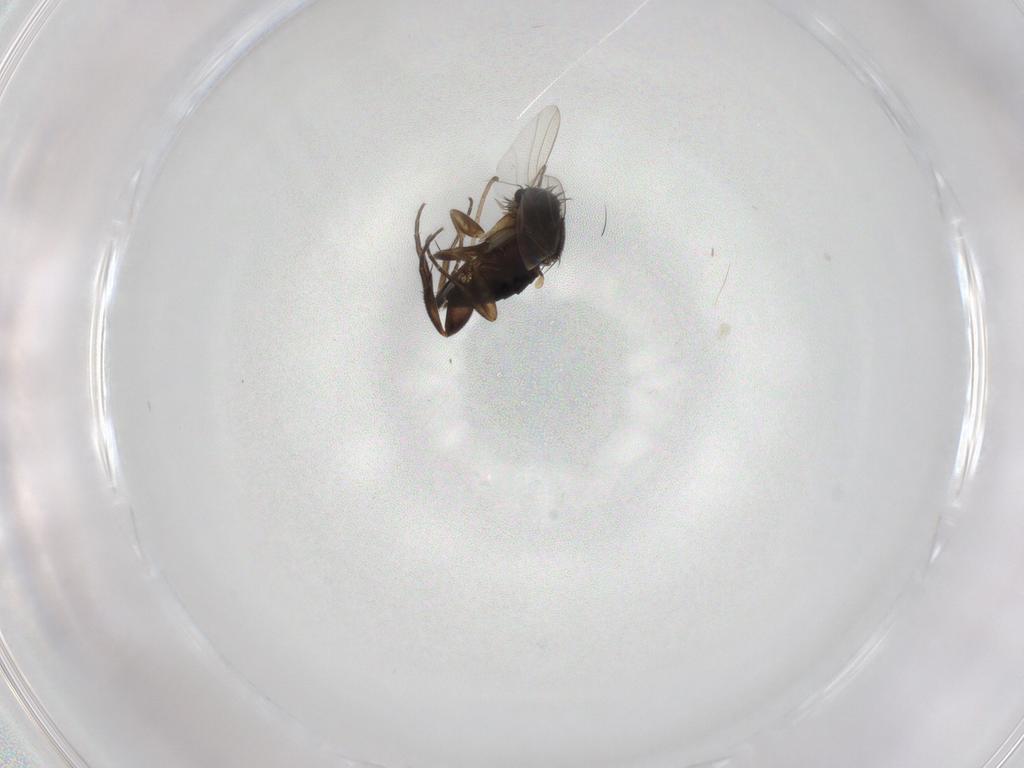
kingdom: Animalia
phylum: Arthropoda
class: Insecta
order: Diptera
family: Phoridae
